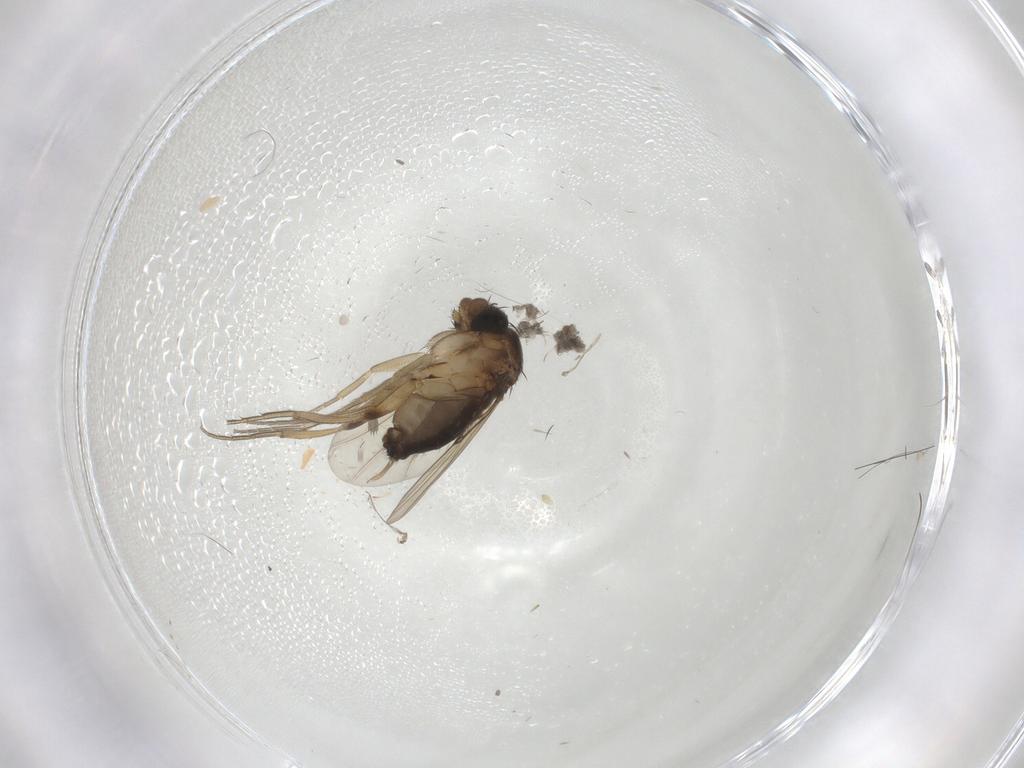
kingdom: Animalia
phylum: Arthropoda
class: Insecta
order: Diptera
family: Phoridae
